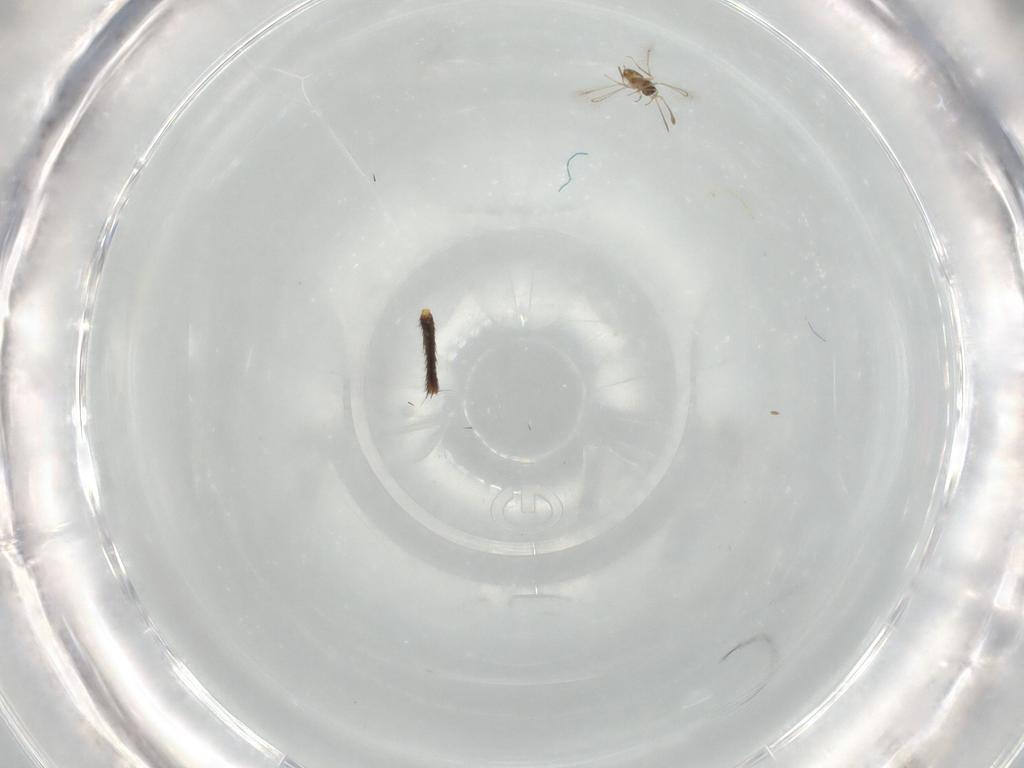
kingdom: Animalia
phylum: Arthropoda
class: Insecta
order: Hymenoptera
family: Mymaridae
